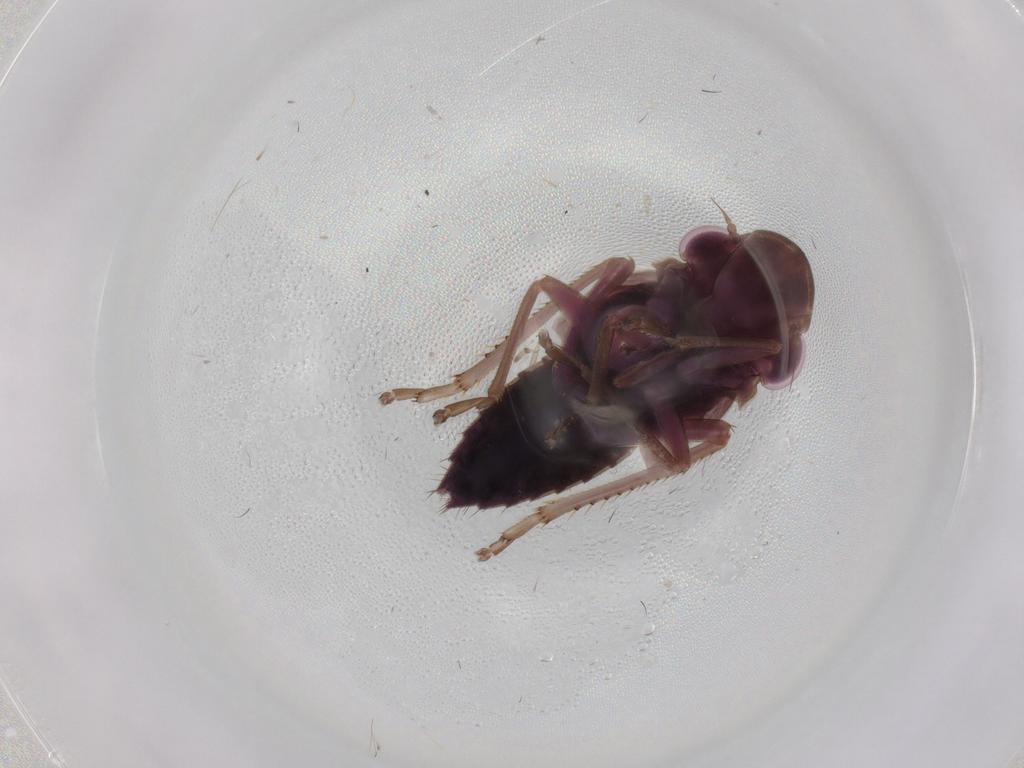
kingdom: Animalia
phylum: Arthropoda
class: Insecta
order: Hemiptera
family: Cicadellidae
